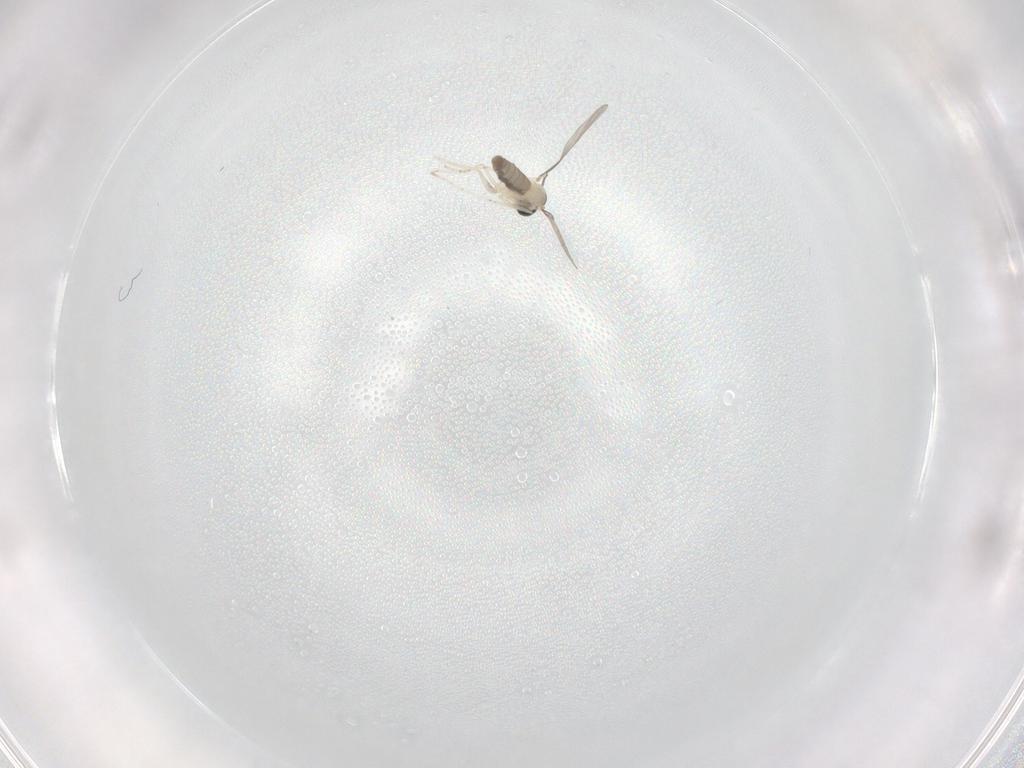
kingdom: Animalia
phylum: Arthropoda
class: Insecta
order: Diptera
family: Cecidomyiidae
